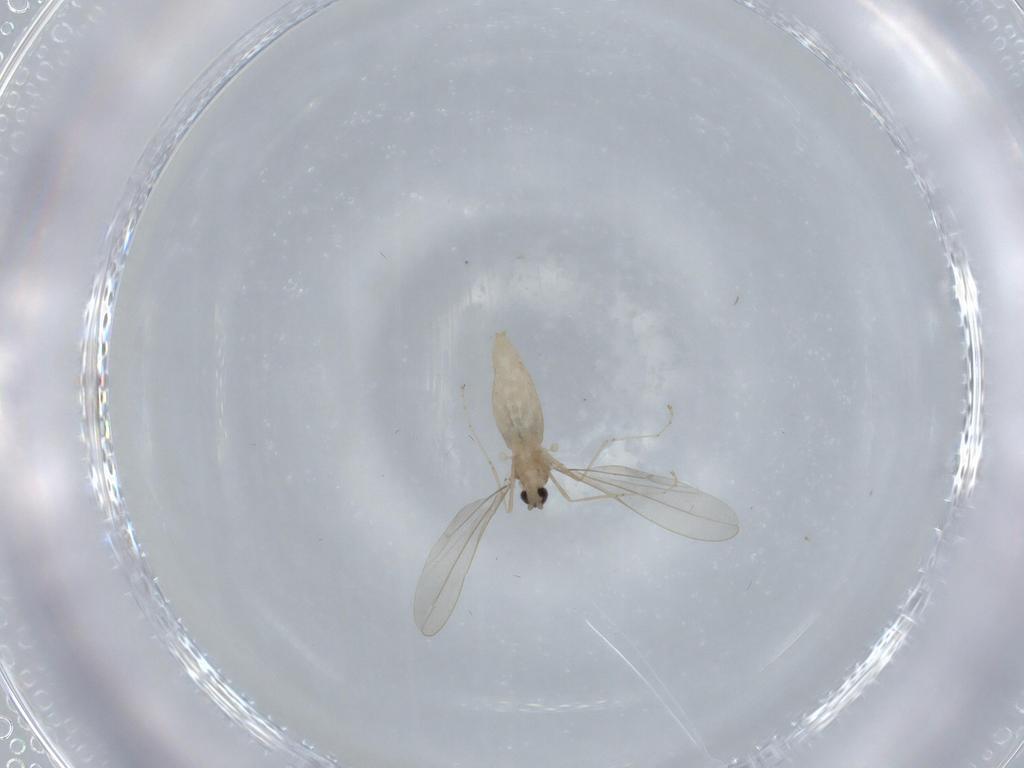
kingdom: Animalia
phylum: Arthropoda
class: Insecta
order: Diptera
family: Cecidomyiidae
